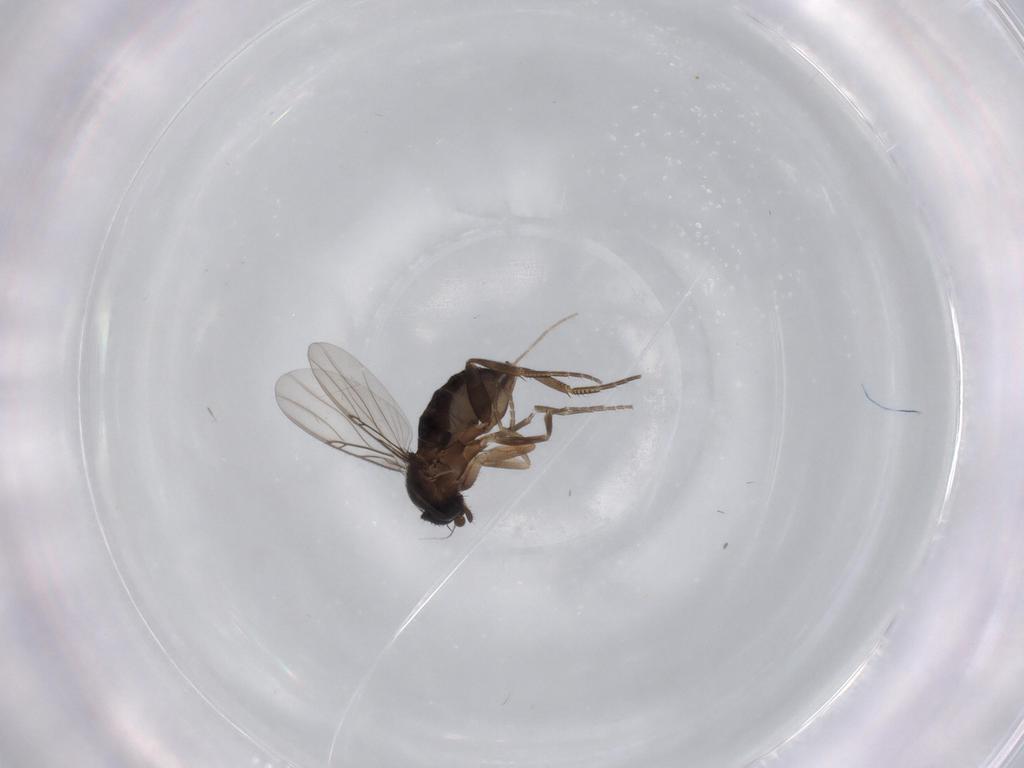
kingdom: Animalia
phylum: Arthropoda
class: Insecta
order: Diptera
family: Phoridae
